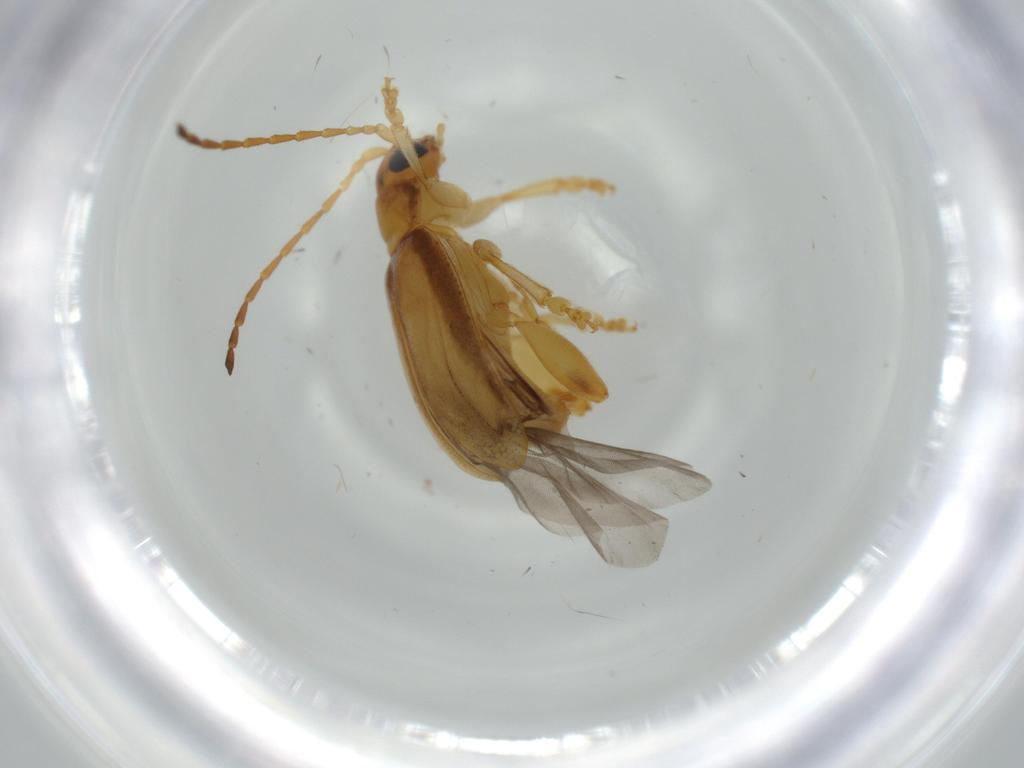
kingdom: Animalia
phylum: Arthropoda
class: Insecta
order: Coleoptera
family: Chrysomelidae
